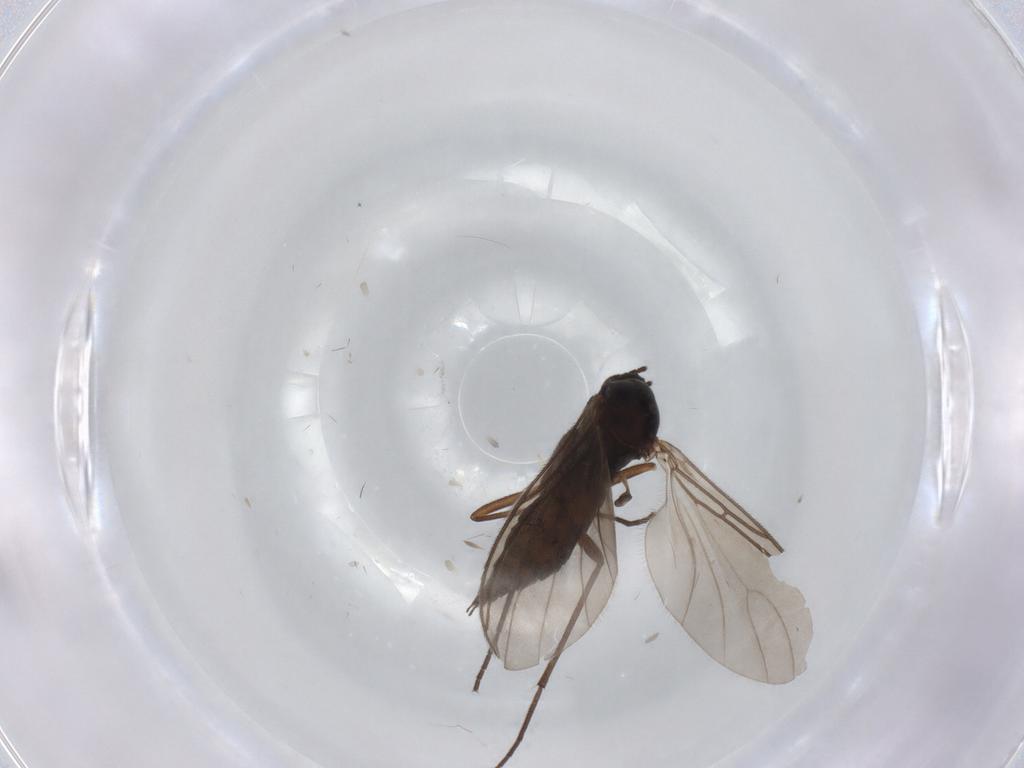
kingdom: Animalia
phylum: Arthropoda
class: Insecta
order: Diptera
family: Sciaridae
